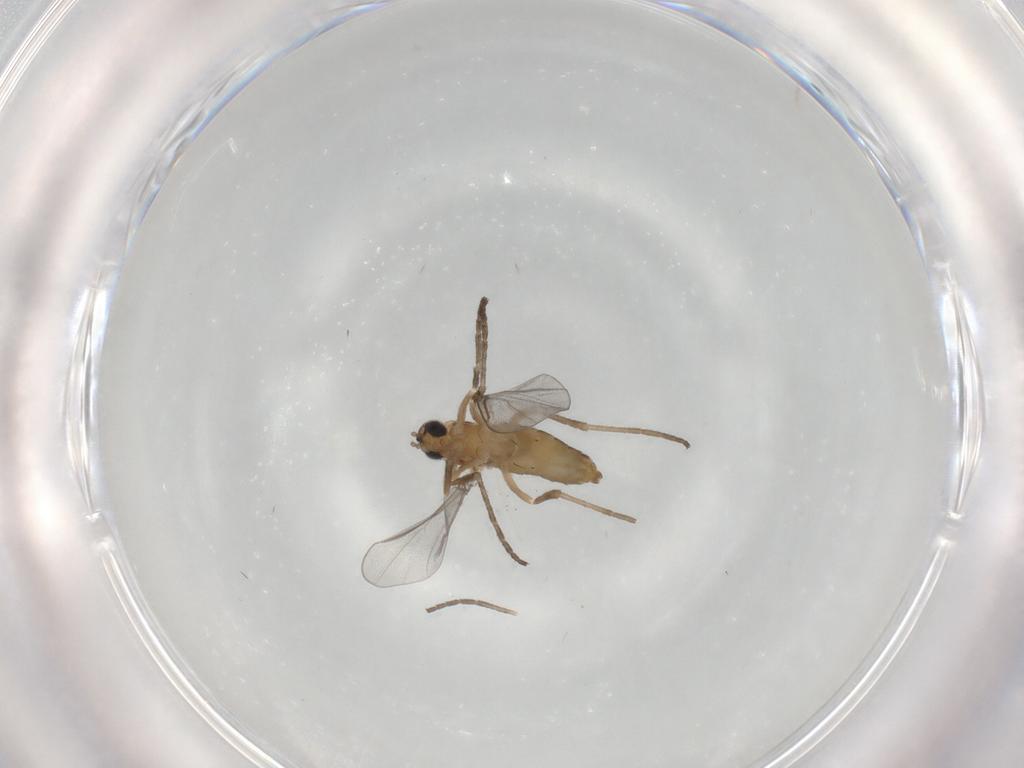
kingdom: Animalia
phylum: Arthropoda
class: Insecta
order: Diptera
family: Cecidomyiidae
